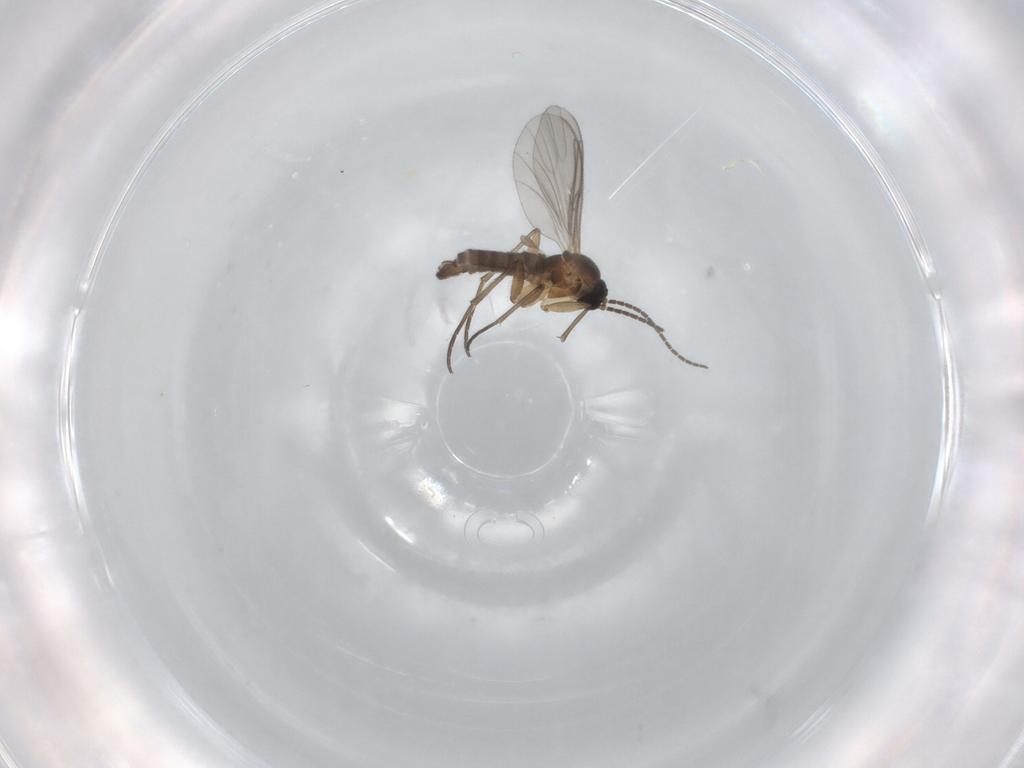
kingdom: Animalia
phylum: Arthropoda
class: Insecta
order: Diptera
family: Sciaridae
